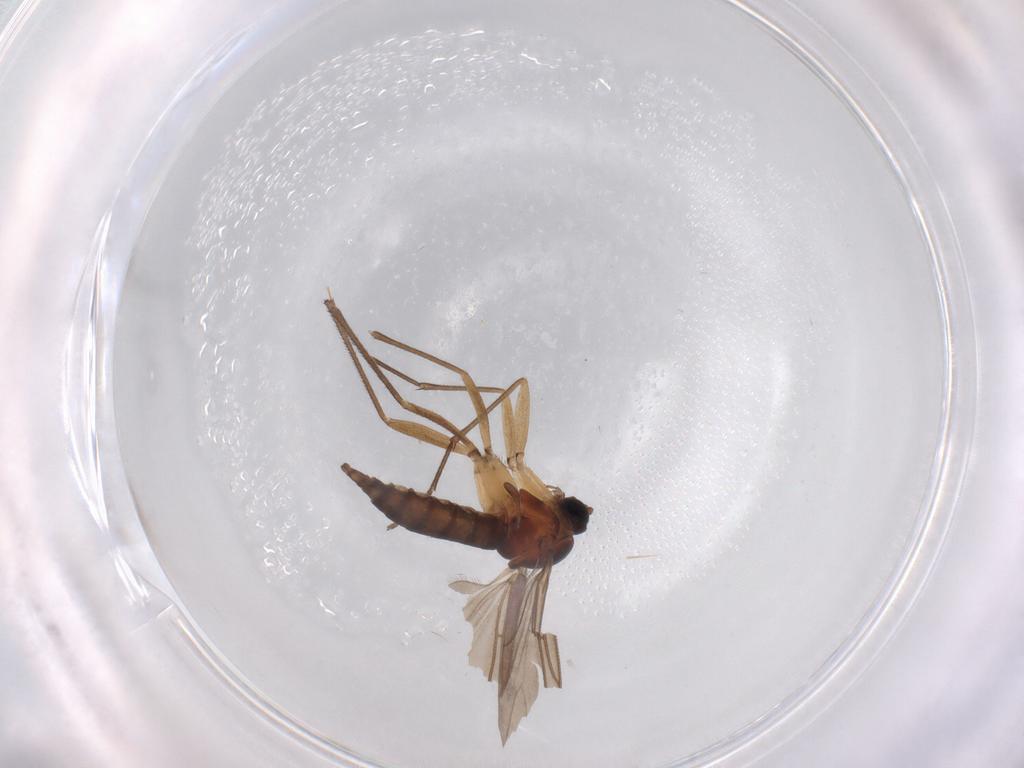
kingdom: Animalia
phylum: Arthropoda
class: Insecta
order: Diptera
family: Sciaridae
